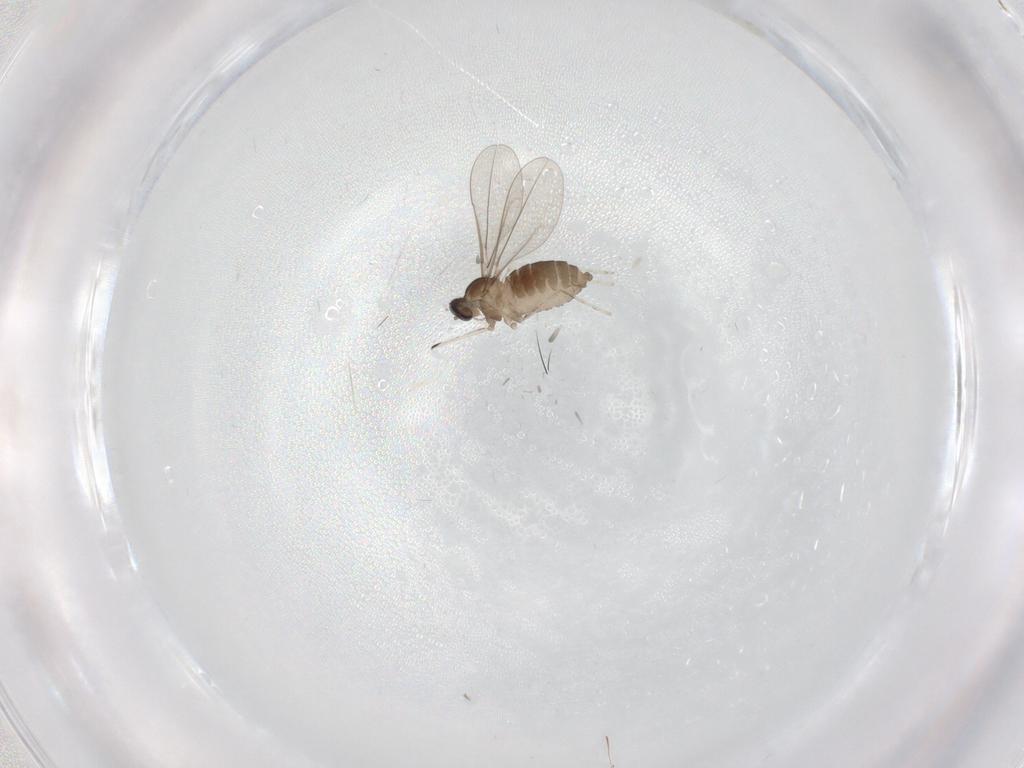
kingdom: Animalia
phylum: Arthropoda
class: Insecta
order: Diptera
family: Cecidomyiidae
